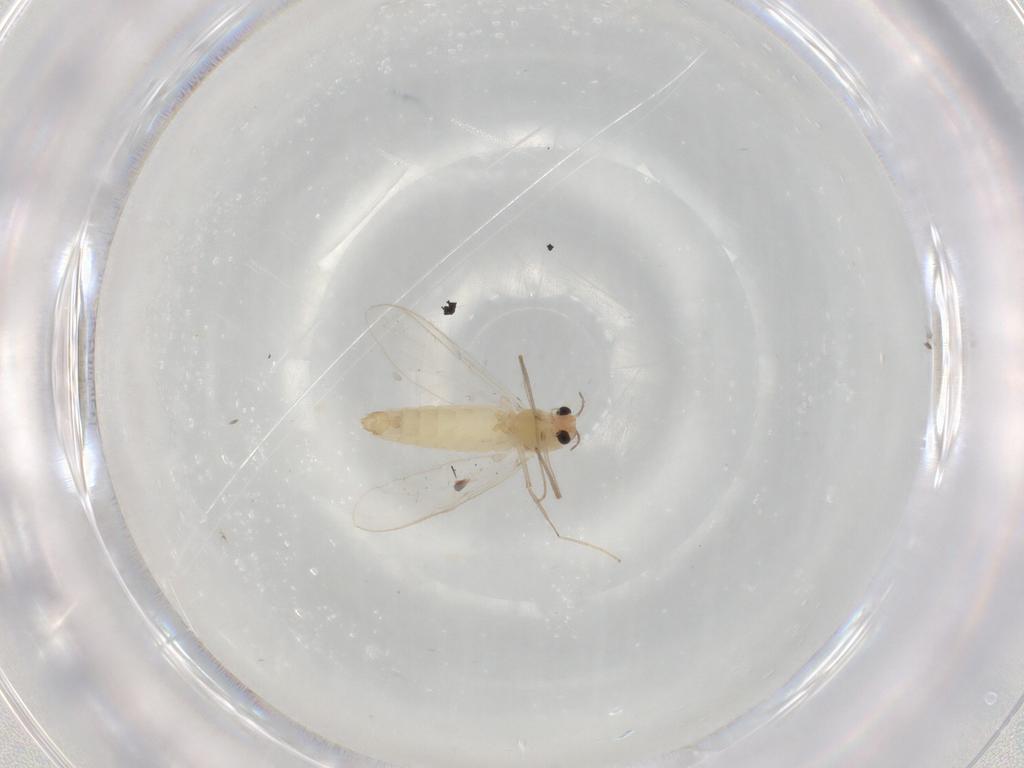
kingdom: Animalia
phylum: Arthropoda
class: Insecta
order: Diptera
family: Chironomidae
